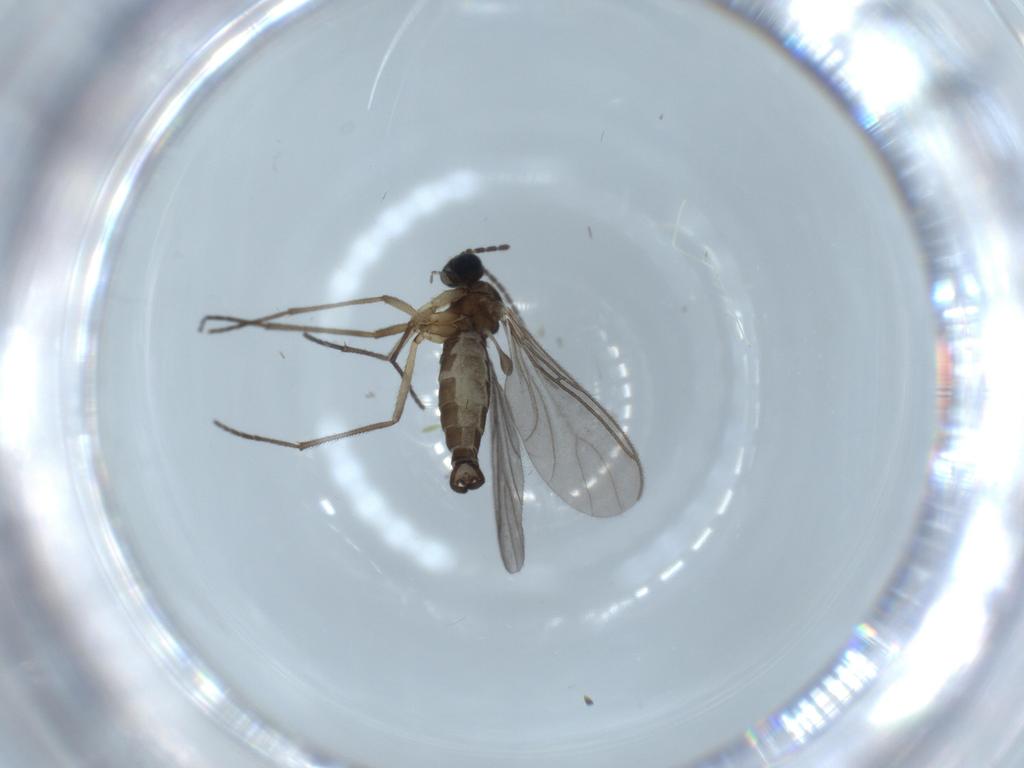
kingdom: Animalia
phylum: Arthropoda
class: Insecta
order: Diptera
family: Sciaridae
